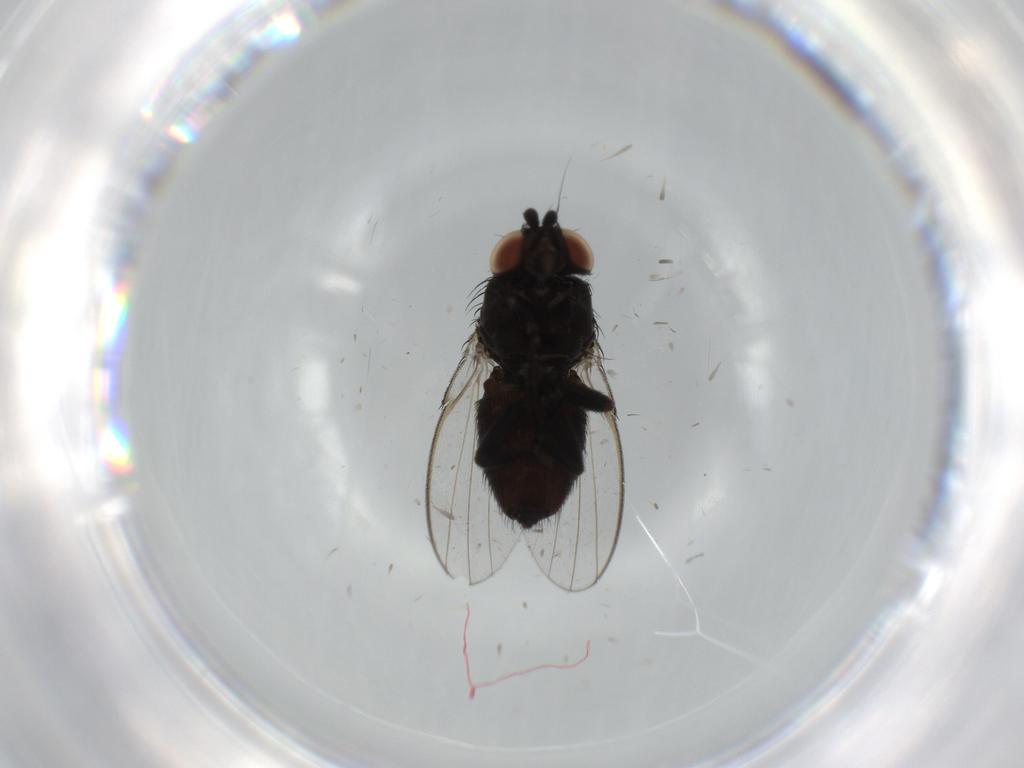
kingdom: Animalia
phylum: Arthropoda
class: Insecta
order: Diptera
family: Milichiidae
